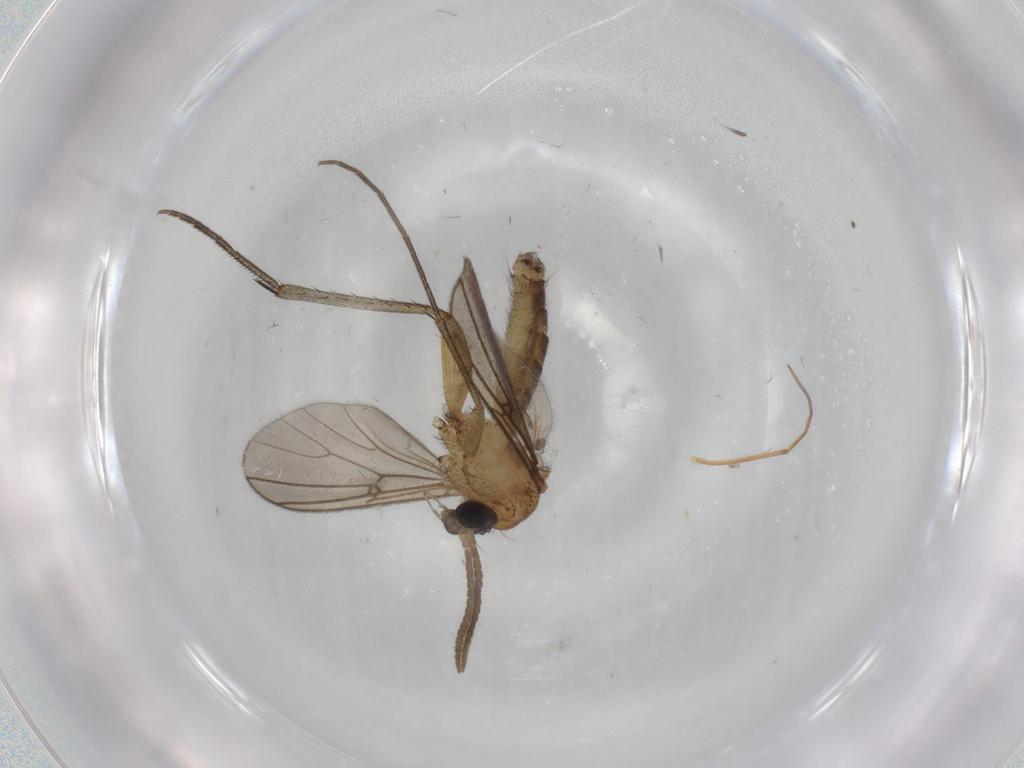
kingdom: Animalia
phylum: Arthropoda
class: Insecta
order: Diptera
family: Mycetophilidae
